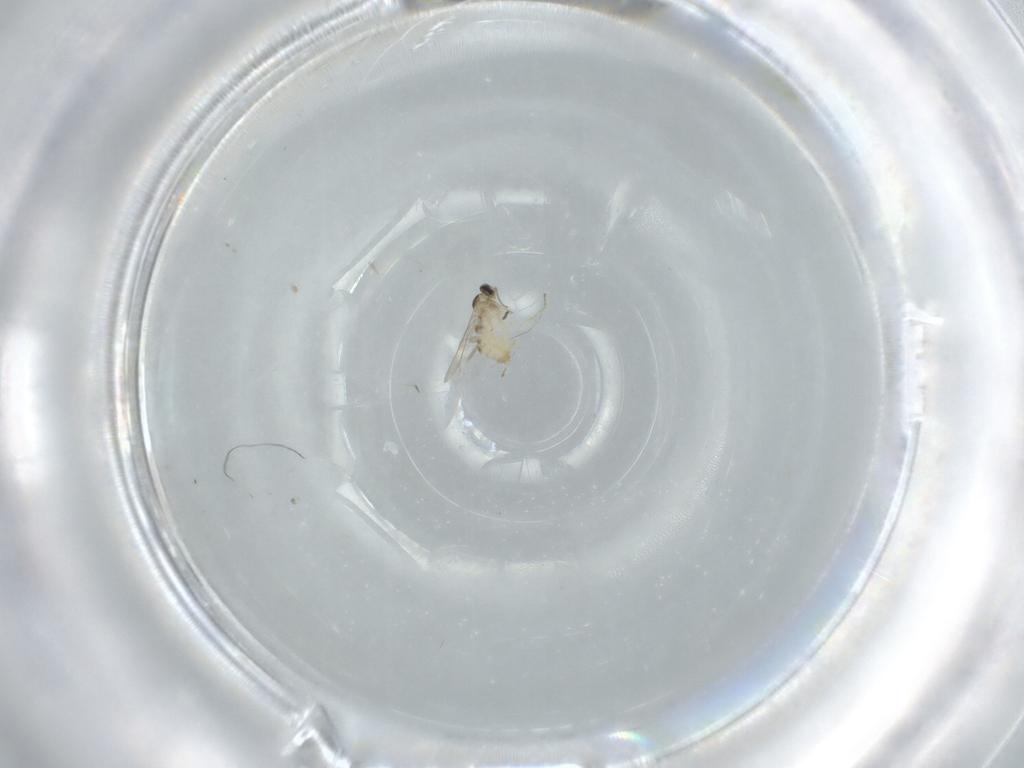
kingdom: Animalia
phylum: Arthropoda
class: Insecta
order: Diptera
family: Cecidomyiidae
